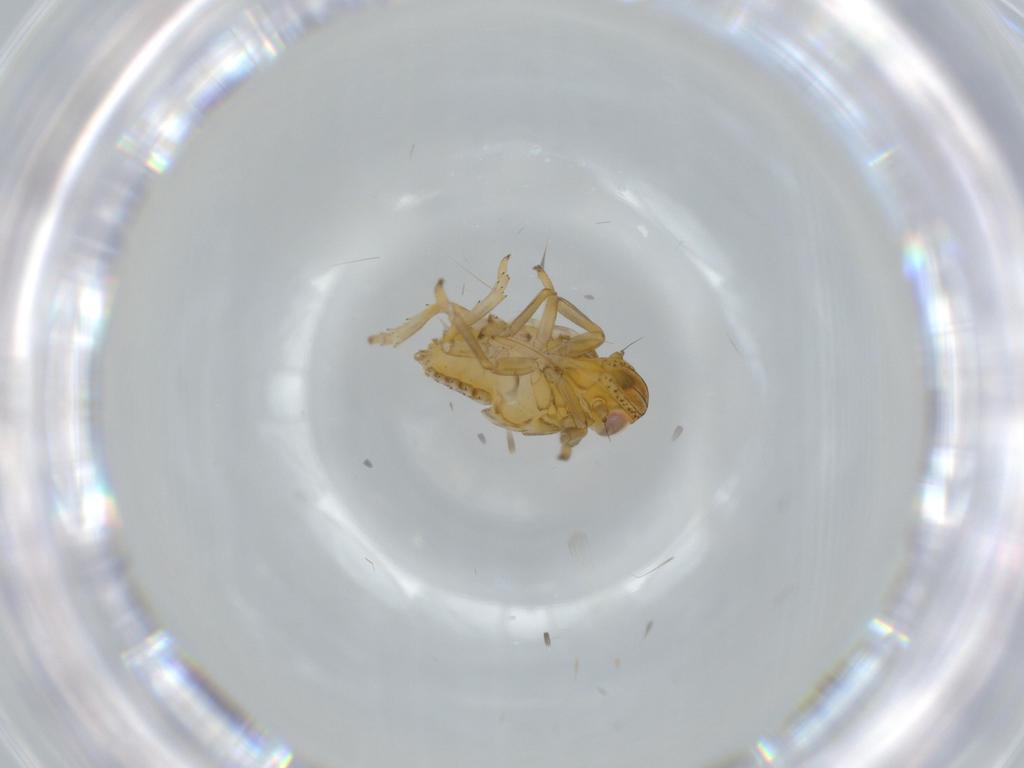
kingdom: Animalia
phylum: Arthropoda
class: Insecta
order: Hemiptera
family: Issidae
